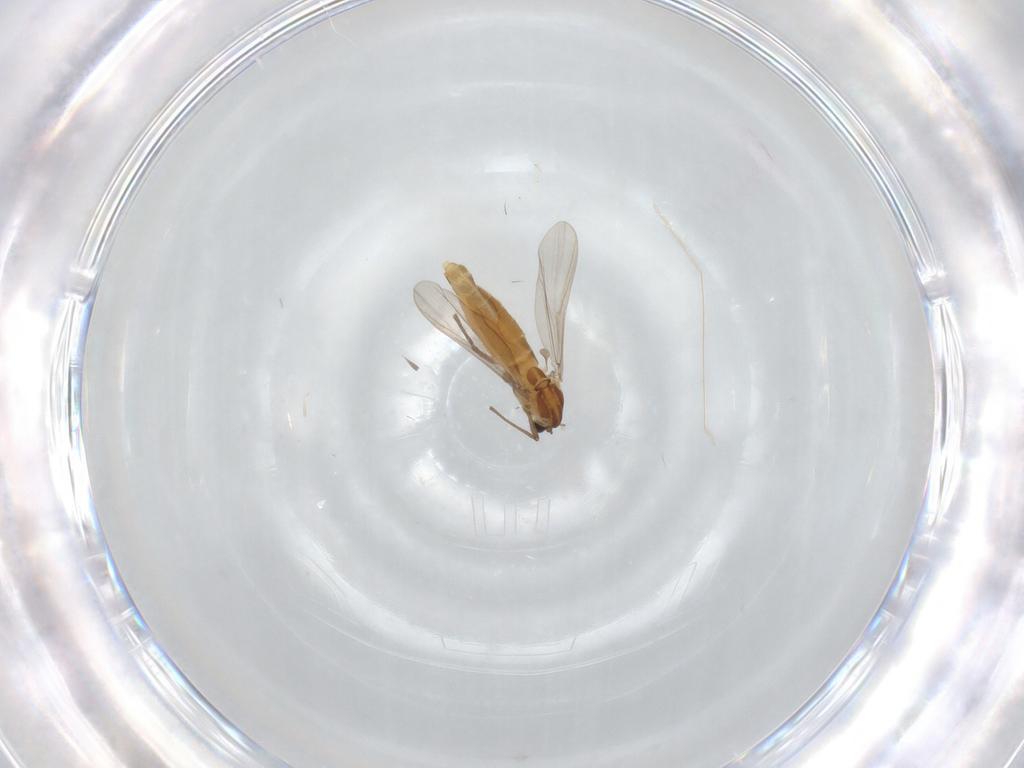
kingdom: Animalia
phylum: Arthropoda
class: Insecta
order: Diptera
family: Chironomidae
